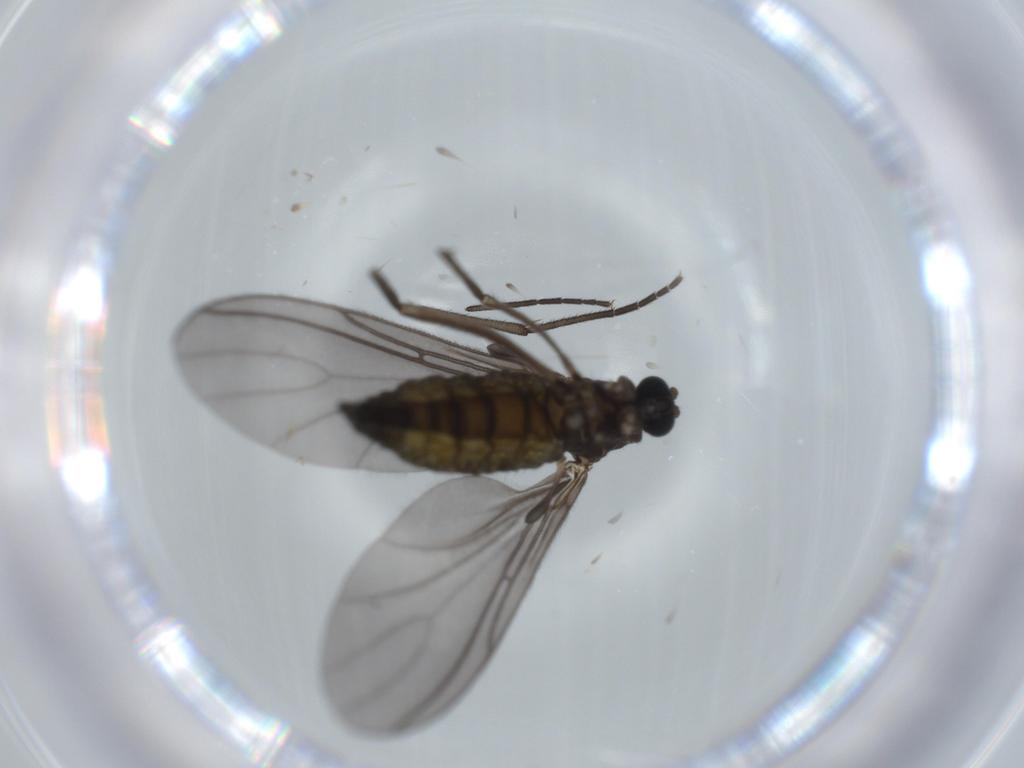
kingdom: Animalia
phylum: Arthropoda
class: Insecta
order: Diptera
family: Sciaridae
